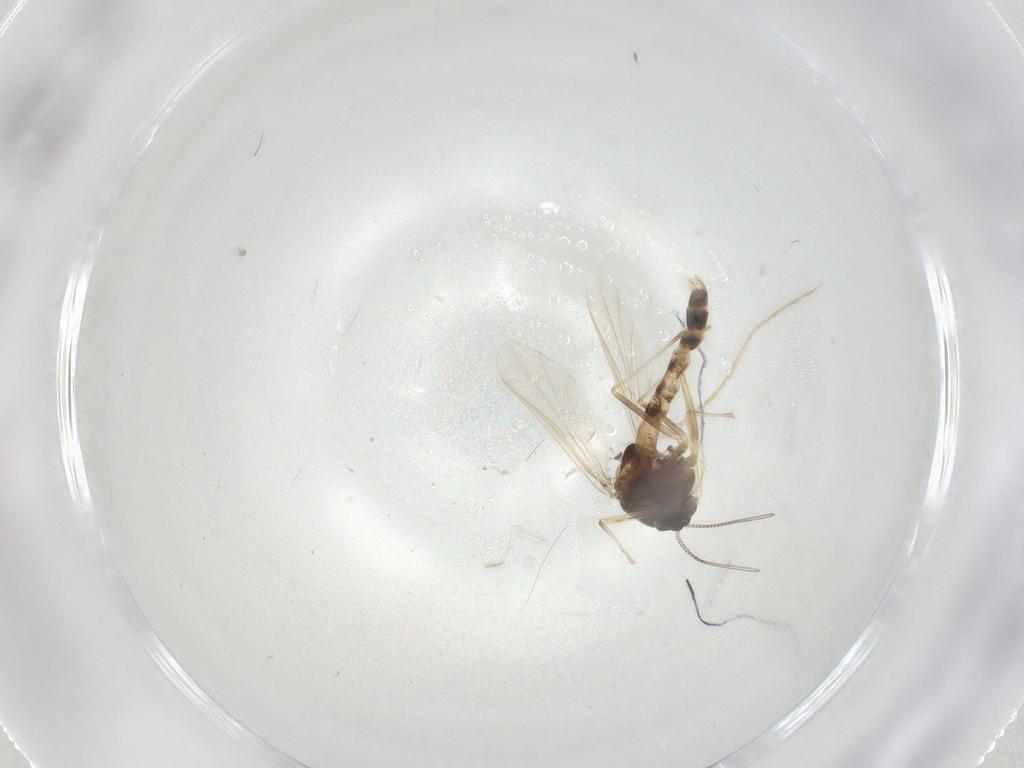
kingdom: Animalia
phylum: Arthropoda
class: Insecta
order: Diptera
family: Chironomidae
